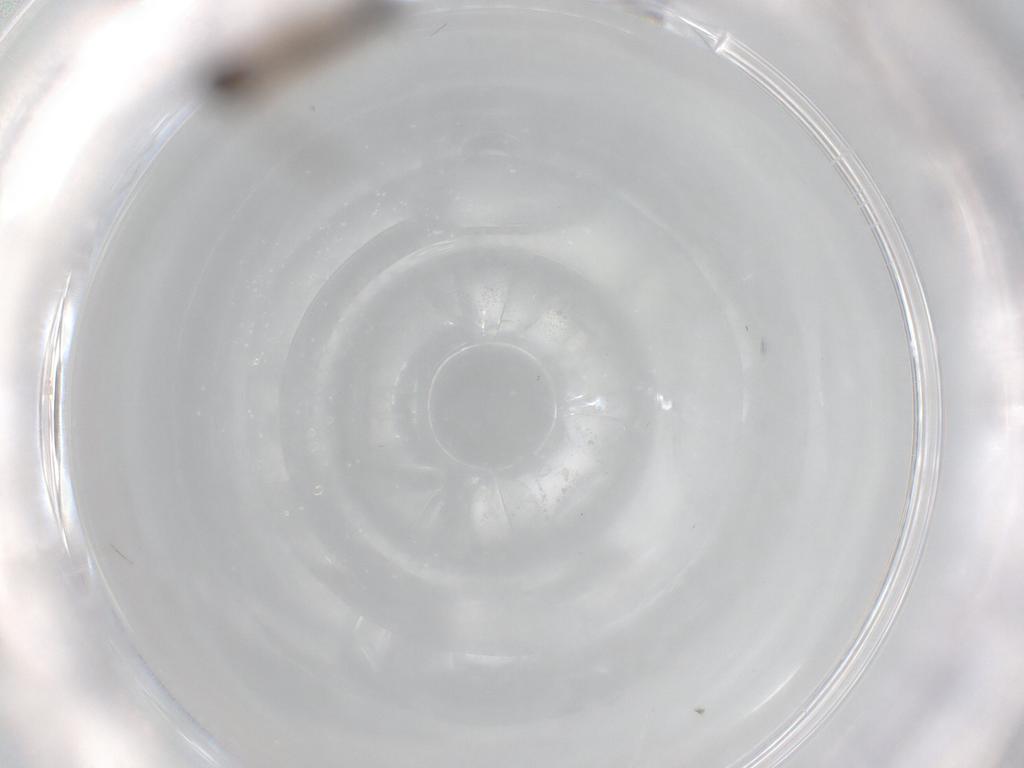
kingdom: Animalia
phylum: Arthropoda
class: Insecta
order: Diptera
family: Sciaridae
